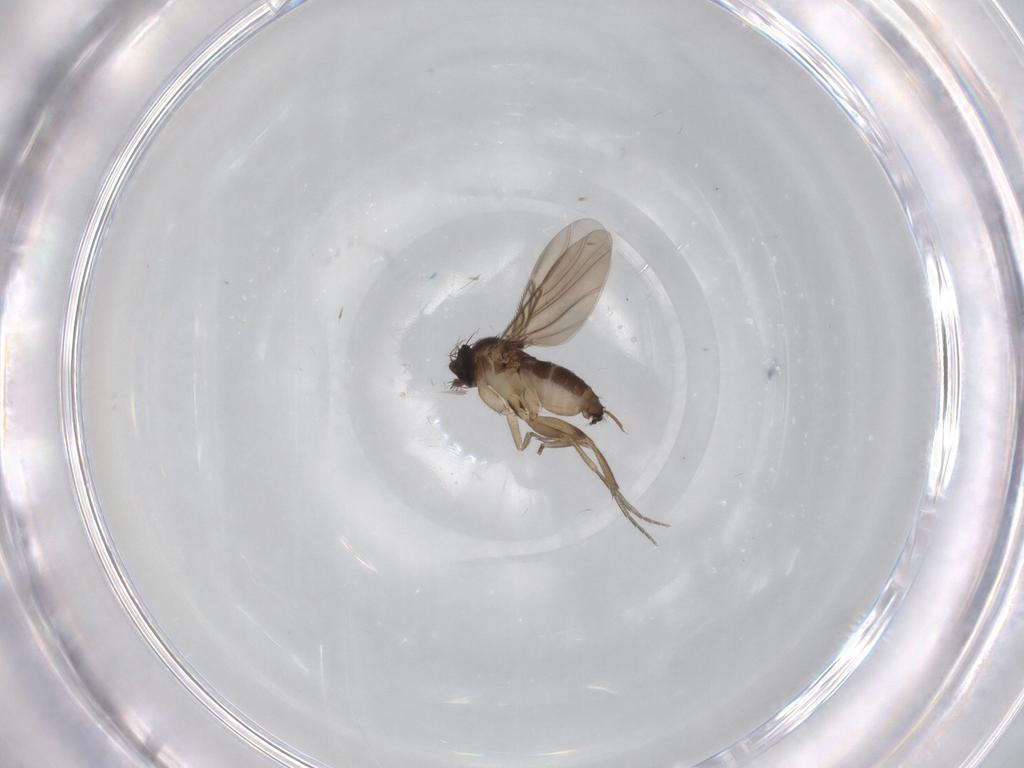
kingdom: Animalia
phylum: Arthropoda
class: Insecta
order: Diptera
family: Phoridae
